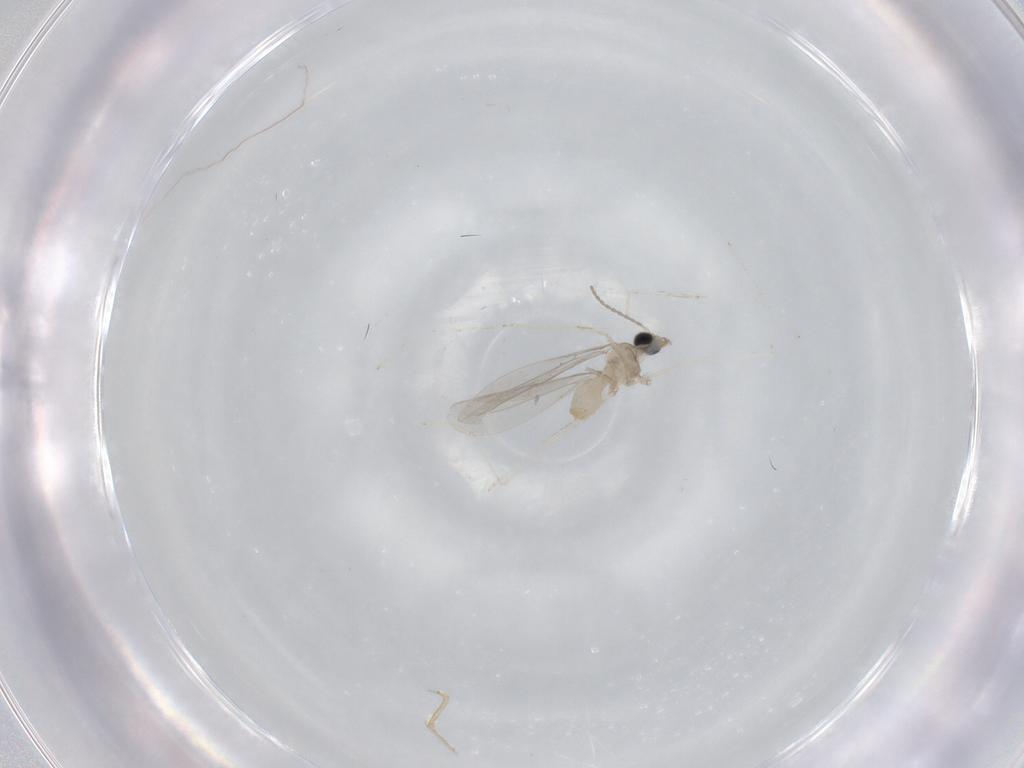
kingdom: Animalia
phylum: Arthropoda
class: Insecta
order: Diptera
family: Cecidomyiidae
